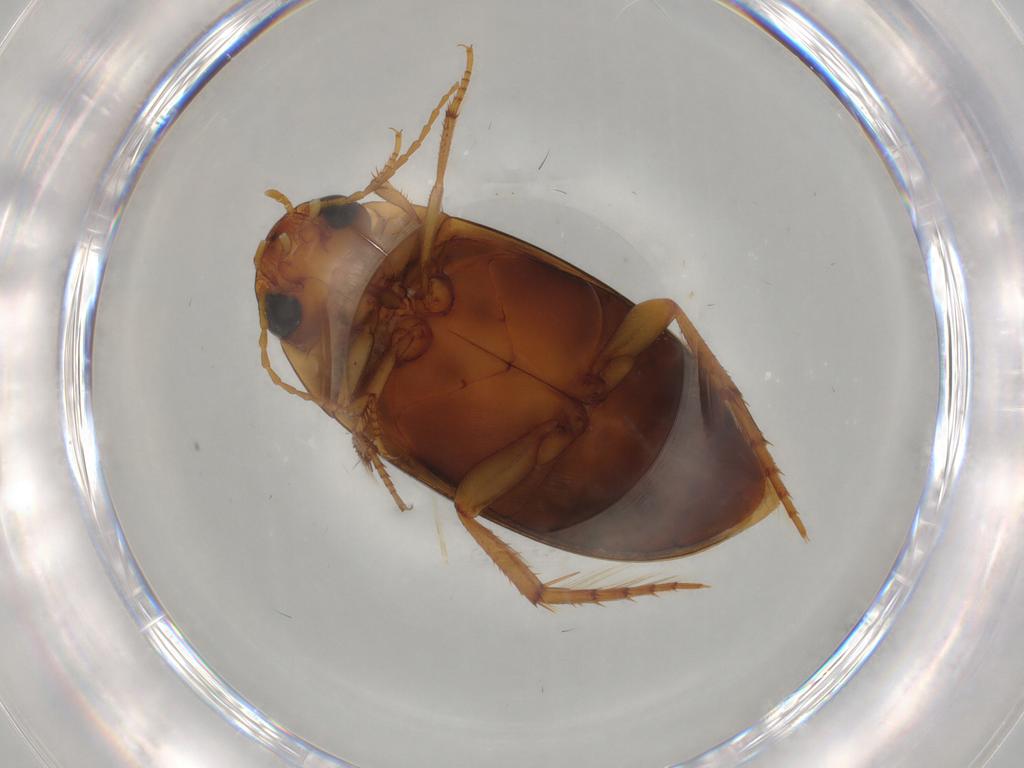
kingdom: Animalia
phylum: Arthropoda
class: Insecta
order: Coleoptera
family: Dytiscidae
